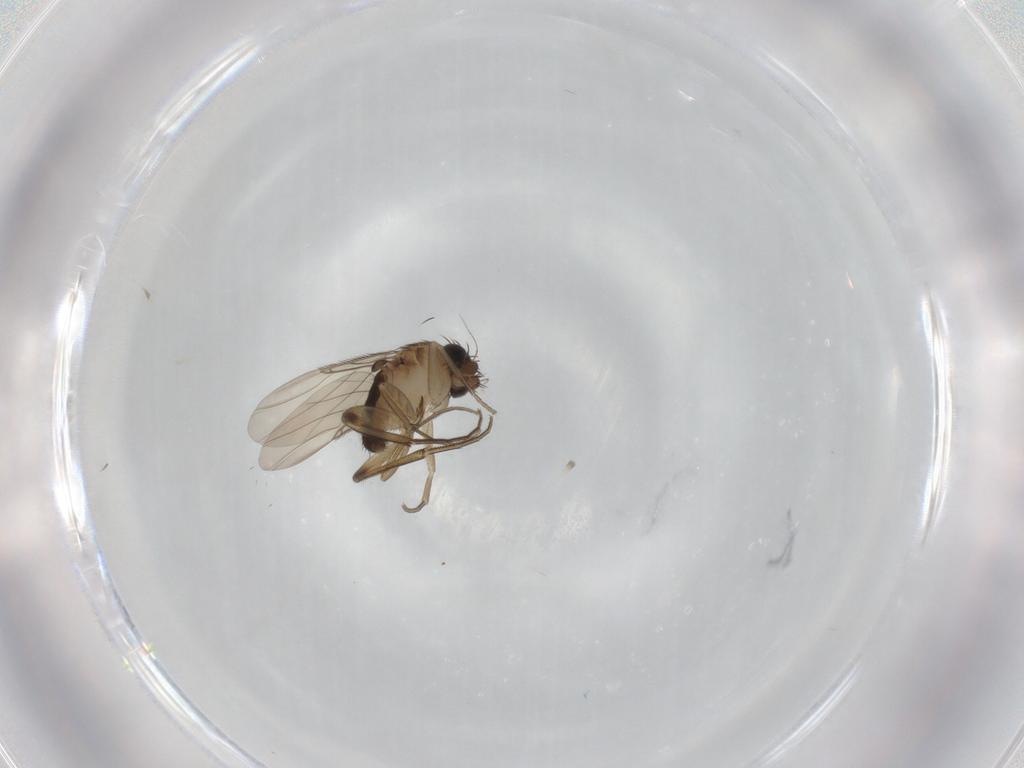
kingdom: Animalia
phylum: Arthropoda
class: Insecta
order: Diptera
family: Phoridae
